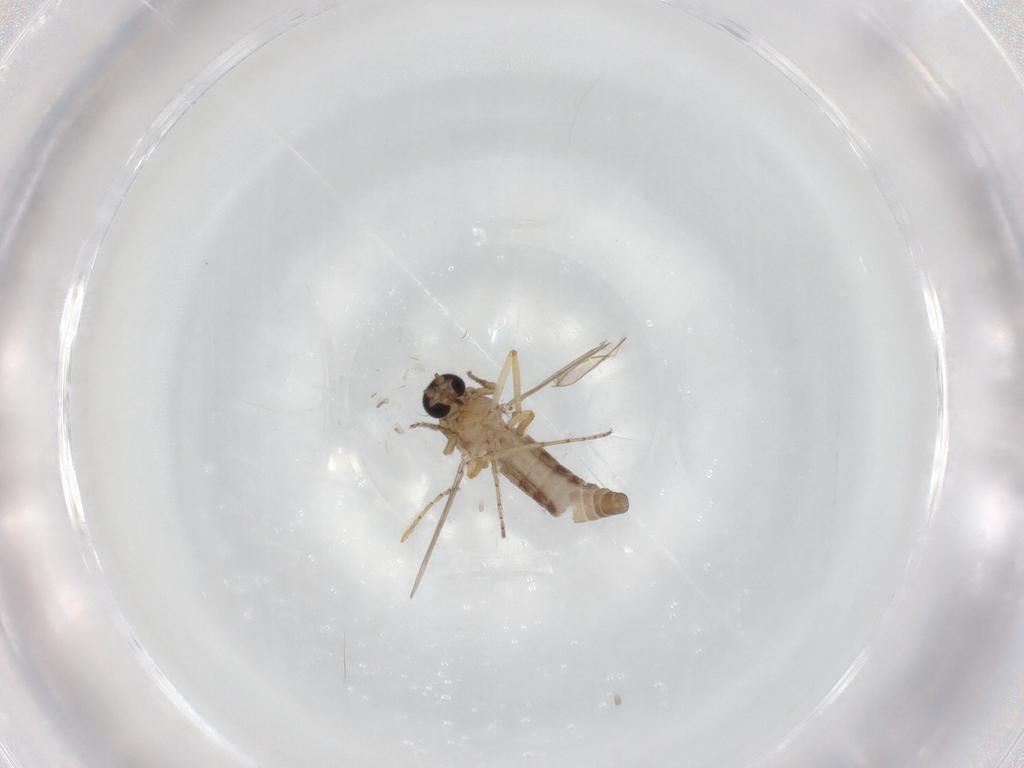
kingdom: Animalia
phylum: Arthropoda
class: Insecta
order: Diptera
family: Ceratopogonidae
